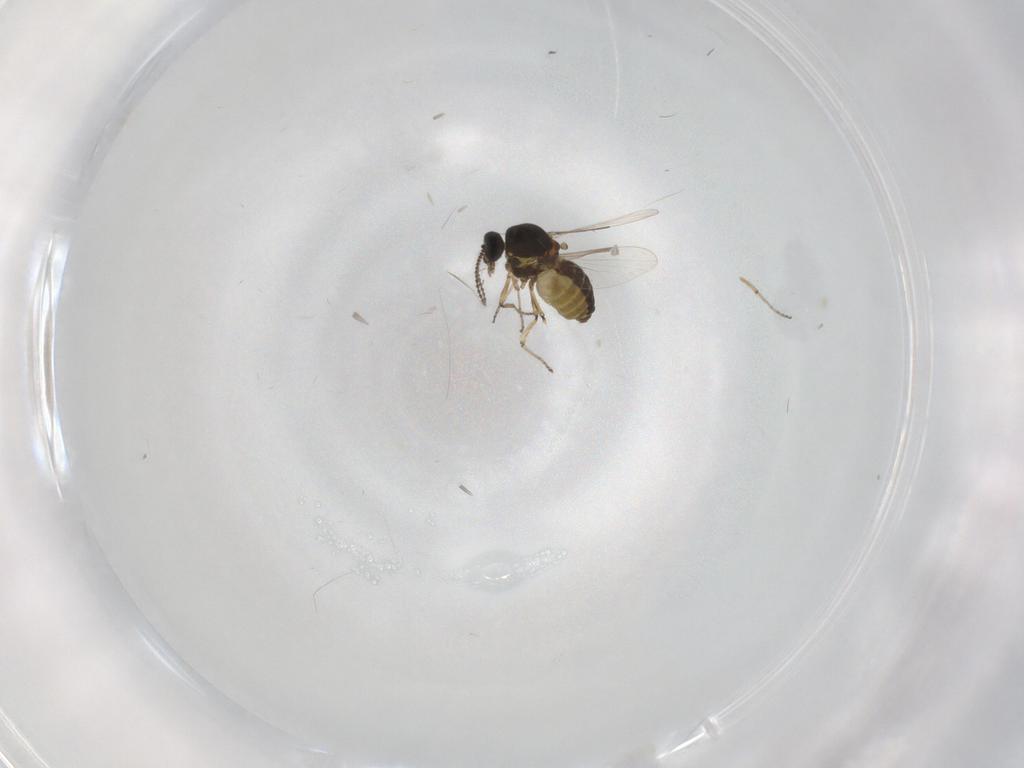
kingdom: Animalia
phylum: Arthropoda
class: Insecta
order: Diptera
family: Ceratopogonidae
